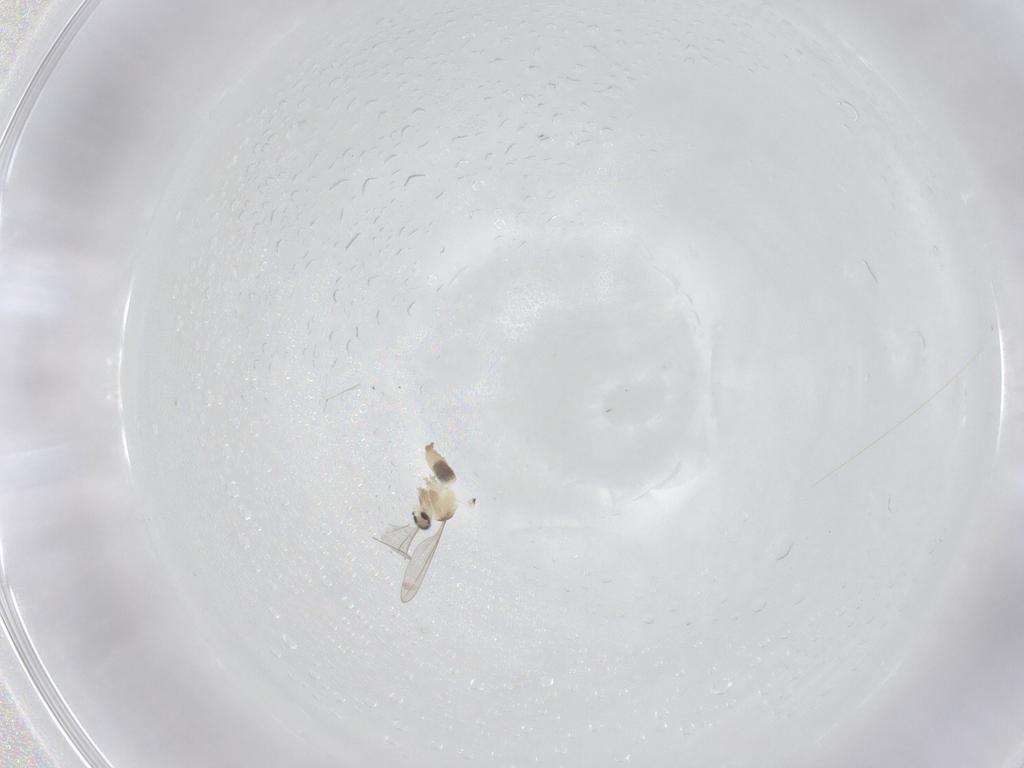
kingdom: Animalia
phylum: Arthropoda
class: Insecta
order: Diptera
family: Cecidomyiidae
